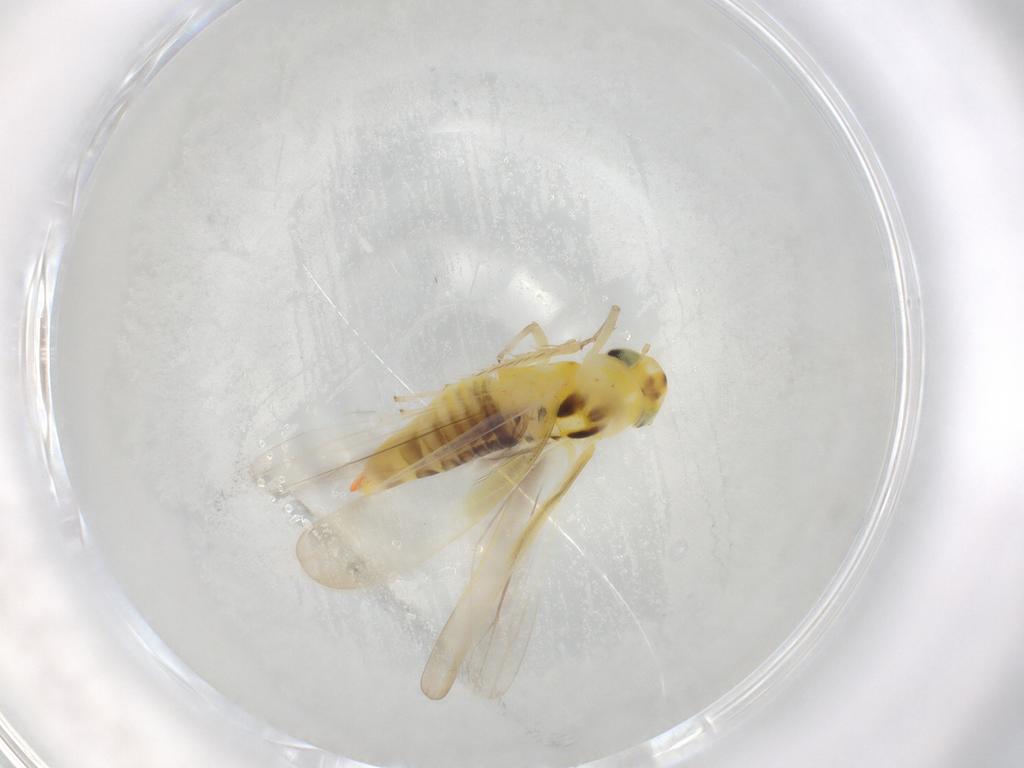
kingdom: Animalia
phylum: Arthropoda
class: Insecta
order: Hemiptera
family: Cicadellidae
